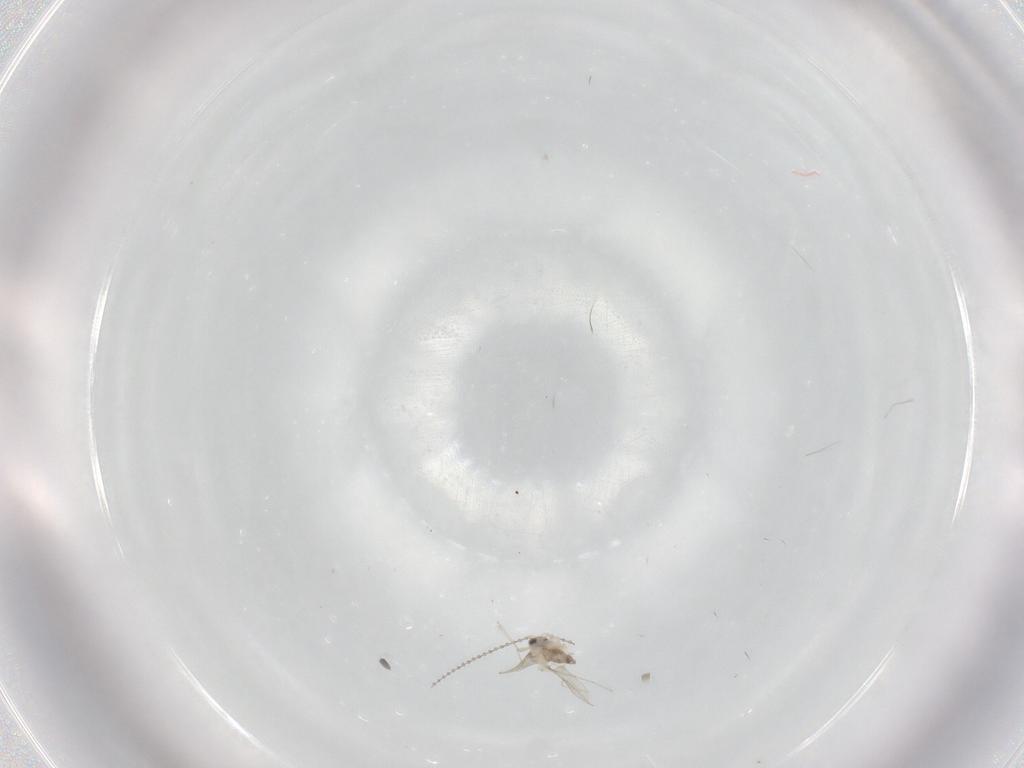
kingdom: Animalia
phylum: Arthropoda
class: Insecta
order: Diptera
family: Cecidomyiidae
